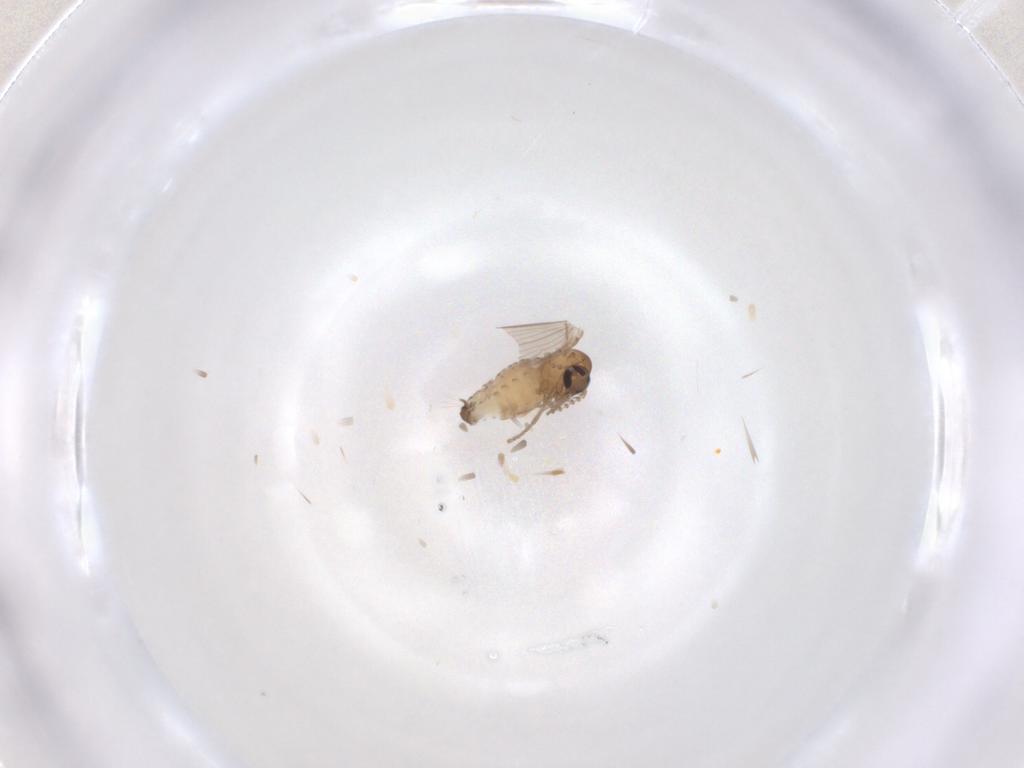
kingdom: Animalia
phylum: Arthropoda
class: Insecta
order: Diptera
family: Psychodidae
